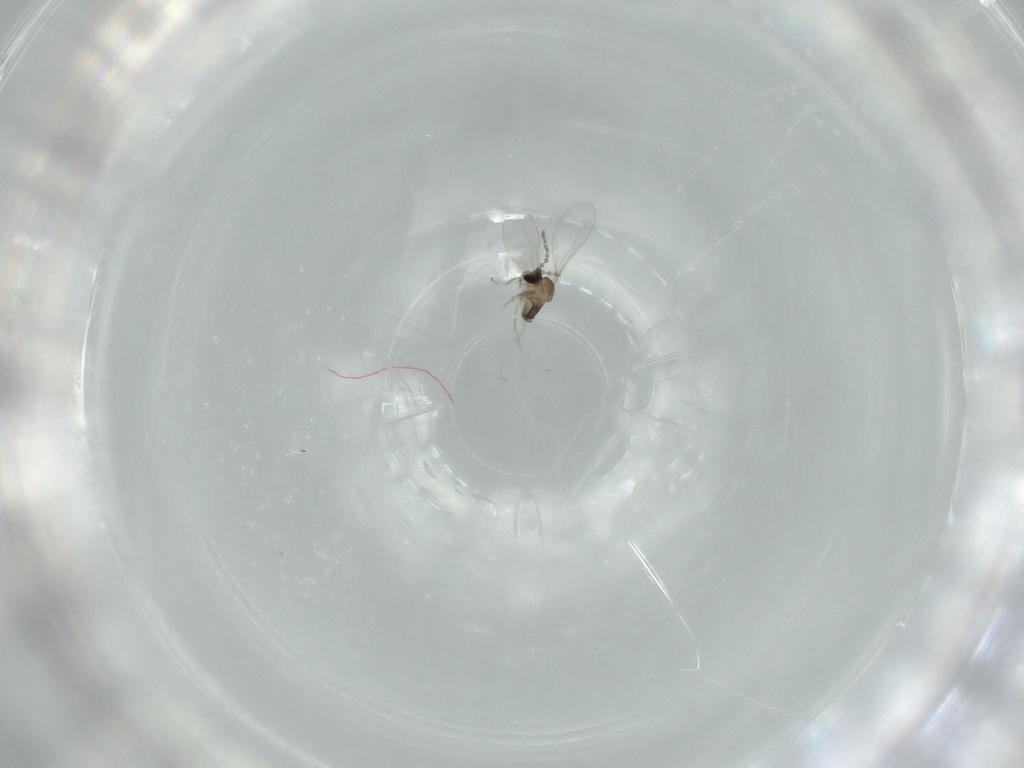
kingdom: Animalia
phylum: Arthropoda
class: Insecta
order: Diptera
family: Cecidomyiidae
